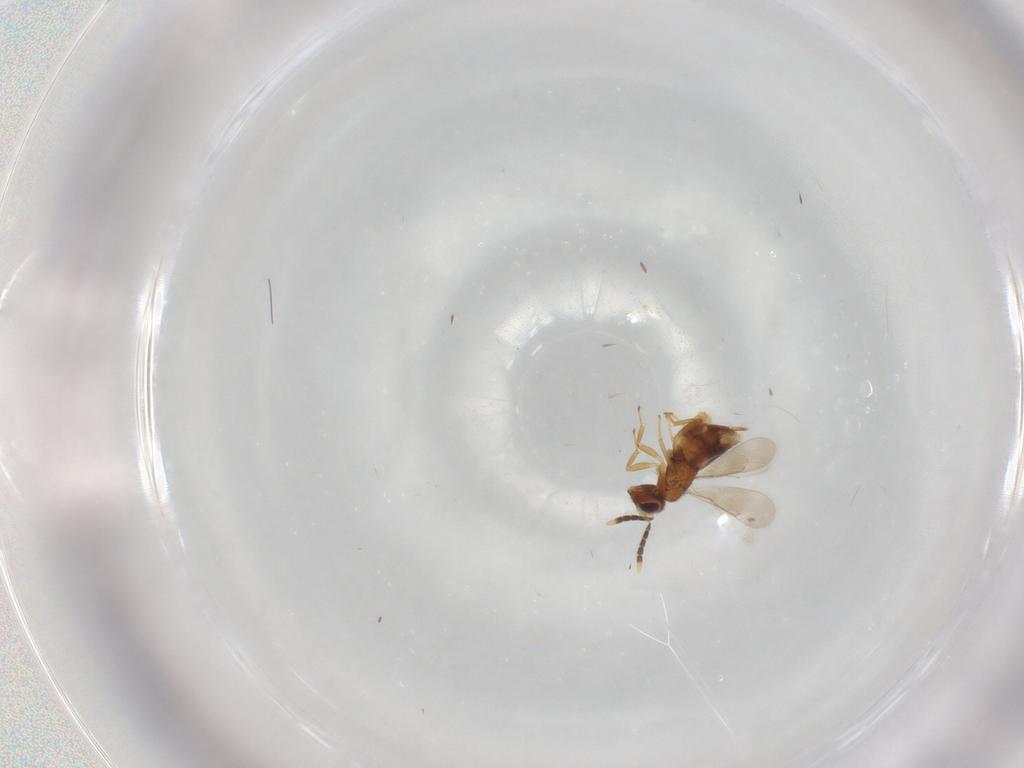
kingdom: Animalia
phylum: Arthropoda
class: Insecta
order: Hymenoptera
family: Aphelinidae
